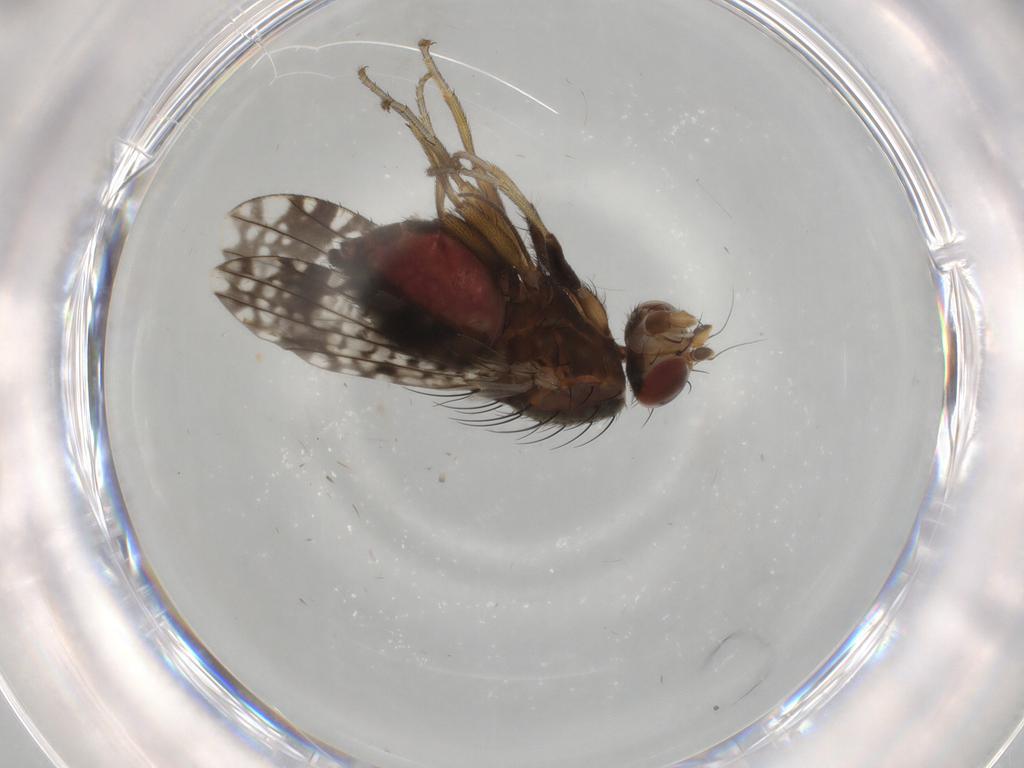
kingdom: Animalia
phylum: Arthropoda
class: Insecta
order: Diptera
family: Tephritidae
